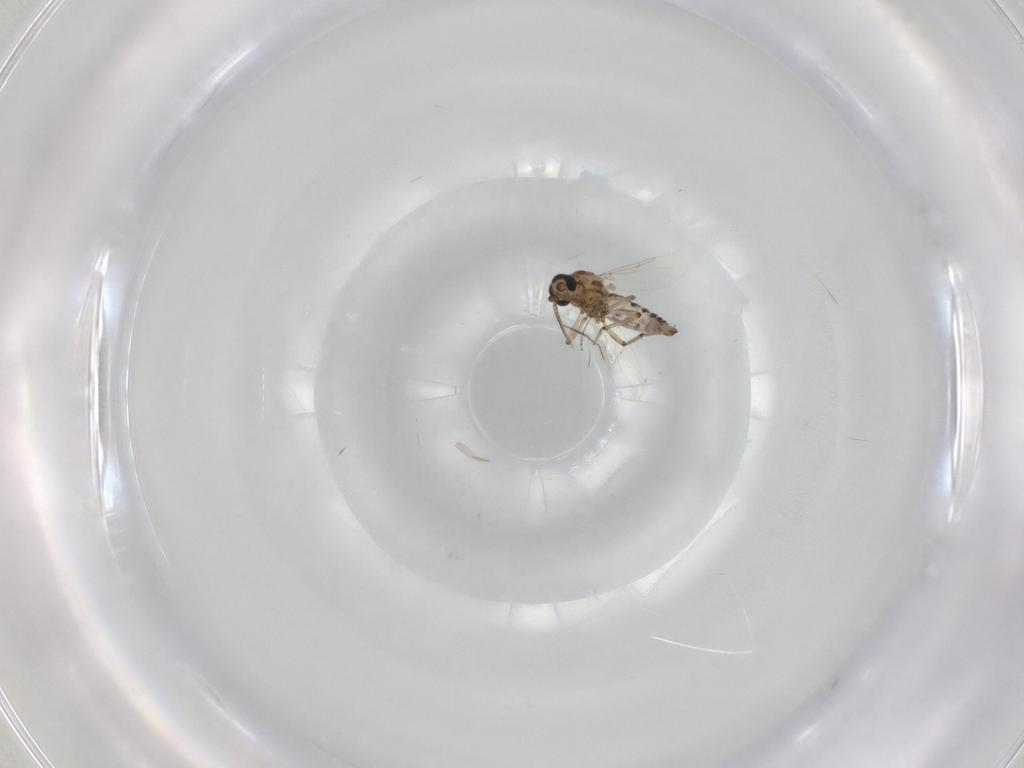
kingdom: Animalia
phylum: Arthropoda
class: Insecta
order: Diptera
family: Ceratopogonidae
